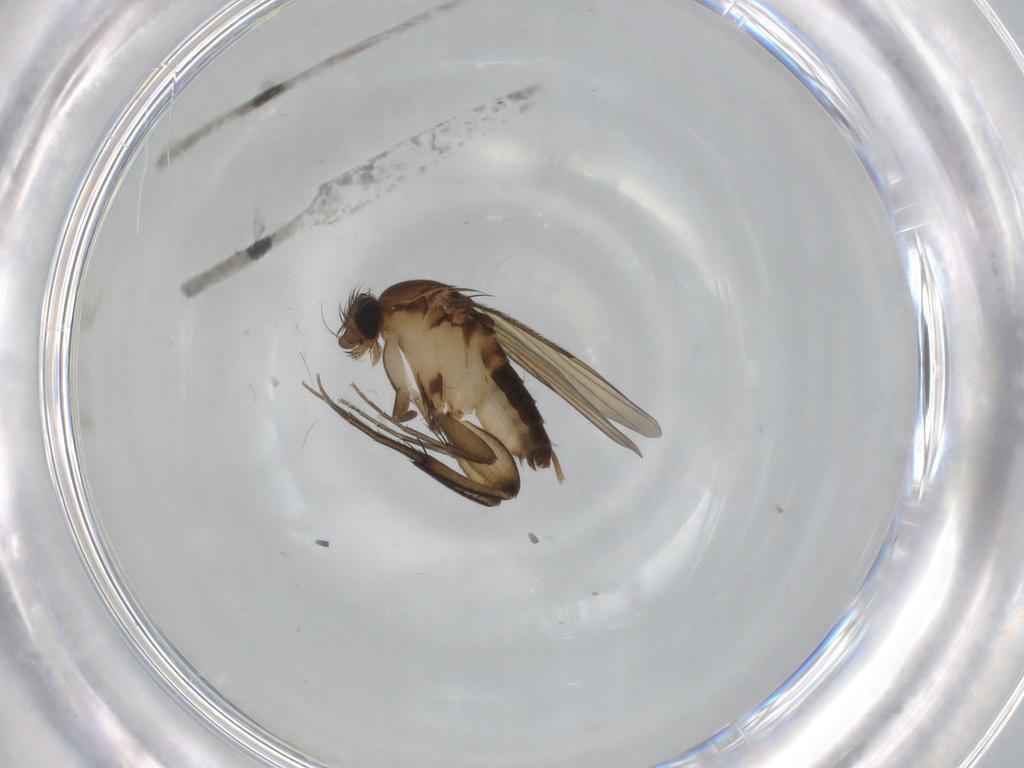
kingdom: Animalia
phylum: Arthropoda
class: Insecta
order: Diptera
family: Phoridae
